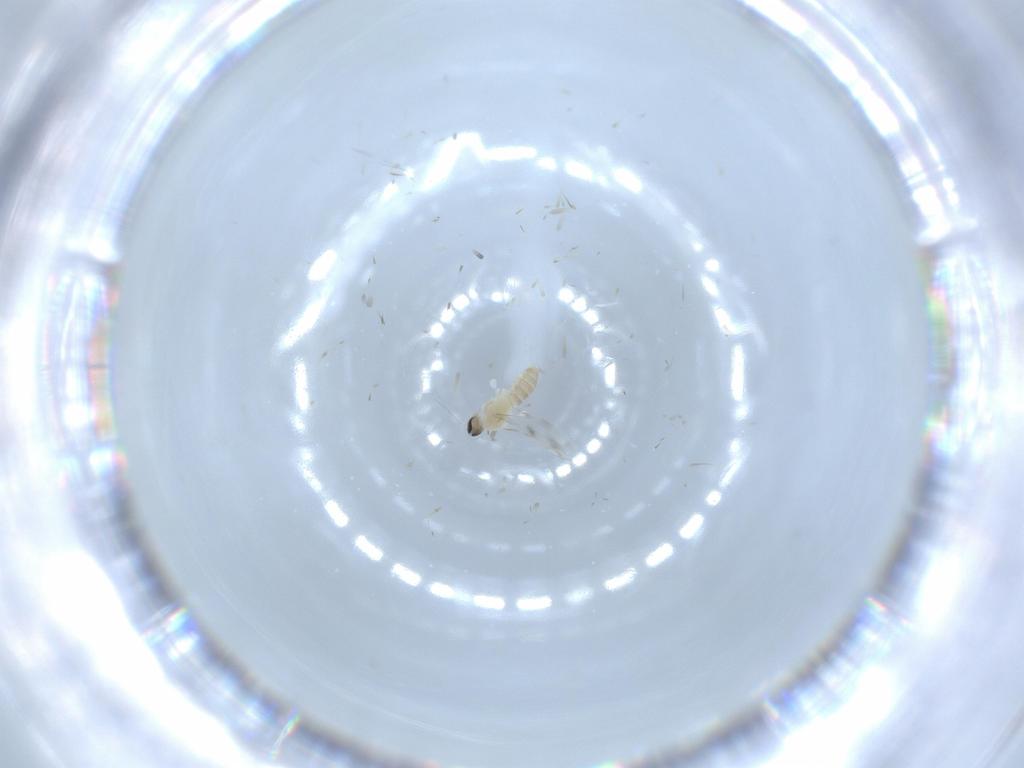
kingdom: Animalia
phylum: Arthropoda
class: Insecta
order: Diptera
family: Cecidomyiidae
